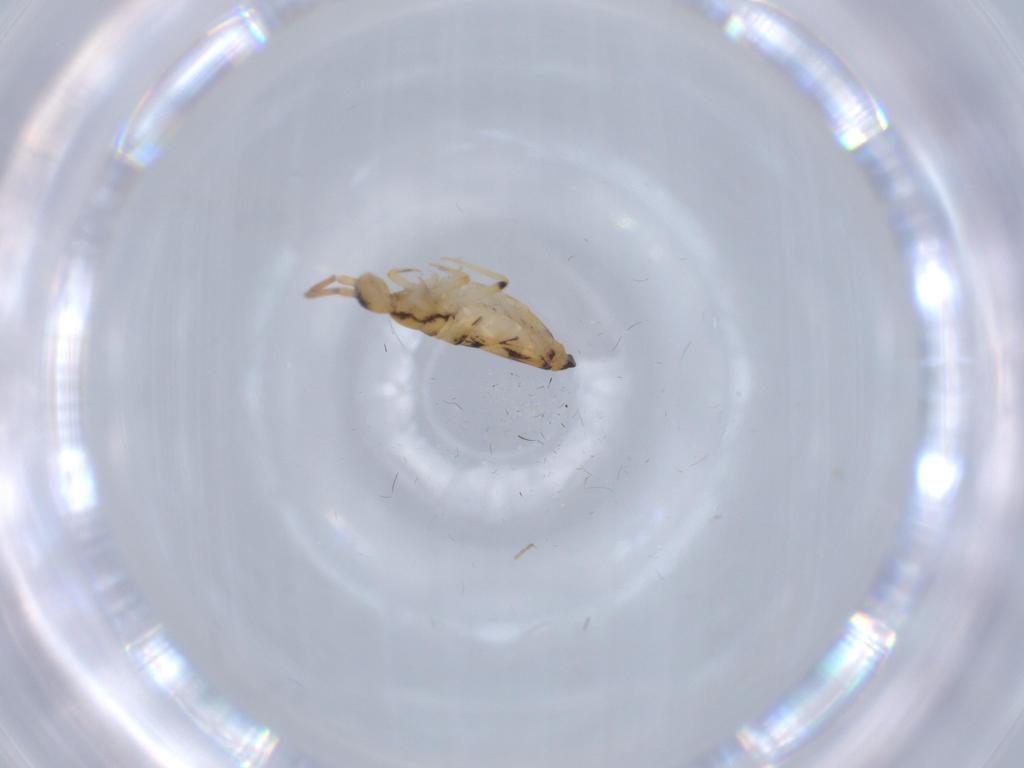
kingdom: Animalia
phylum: Arthropoda
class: Collembola
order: Entomobryomorpha
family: Entomobryidae
